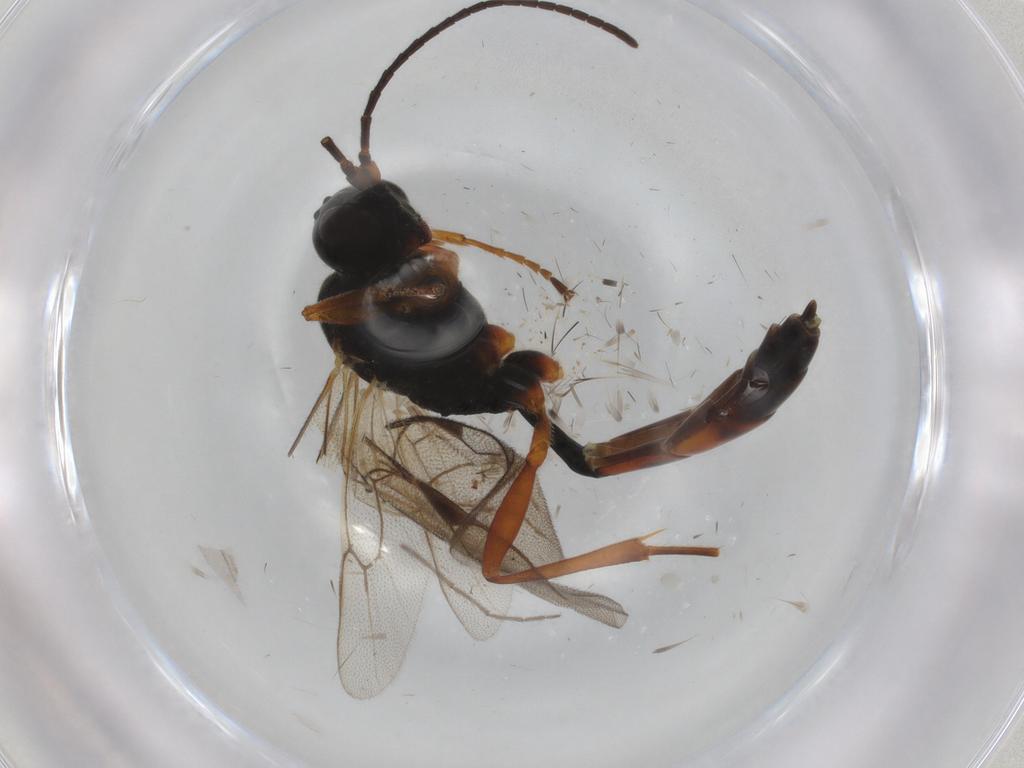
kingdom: Animalia
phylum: Arthropoda
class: Insecta
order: Hymenoptera
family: Ichneumonidae
